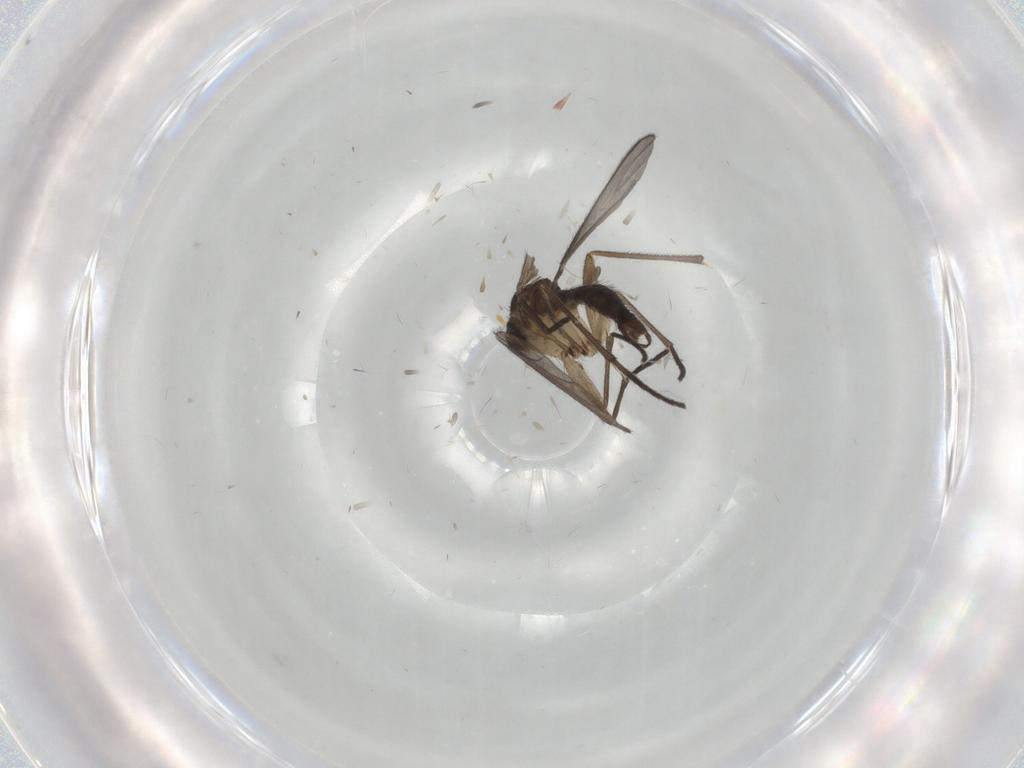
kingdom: Animalia
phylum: Arthropoda
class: Insecta
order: Diptera
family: Sciaridae
